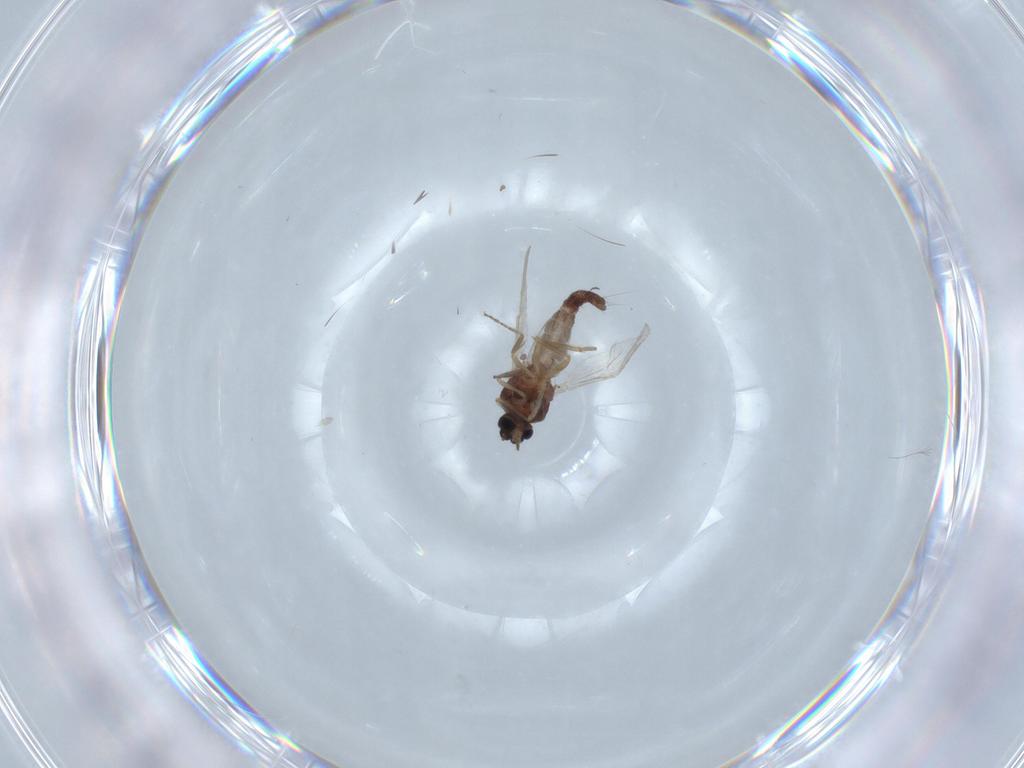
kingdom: Animalia
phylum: Arthropoda
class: Insecta
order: Diptera
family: Ceratopogonidae
